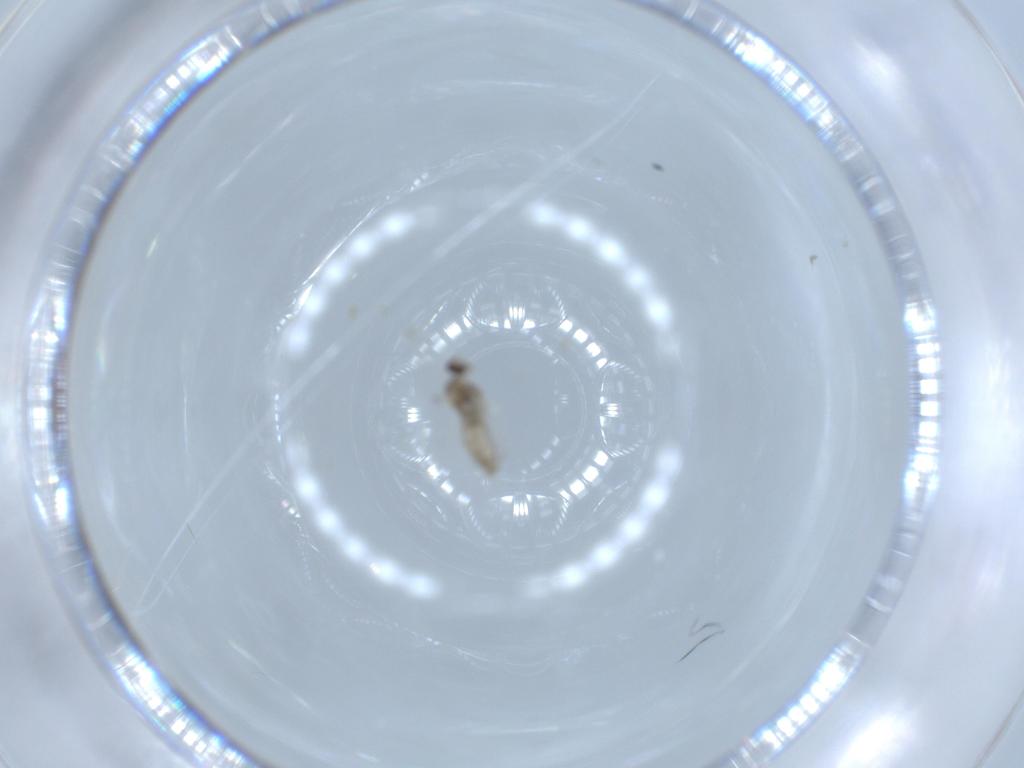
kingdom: Animalia
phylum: Arthropoda
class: Insecta
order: Diptera
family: Cecidomyiidae
